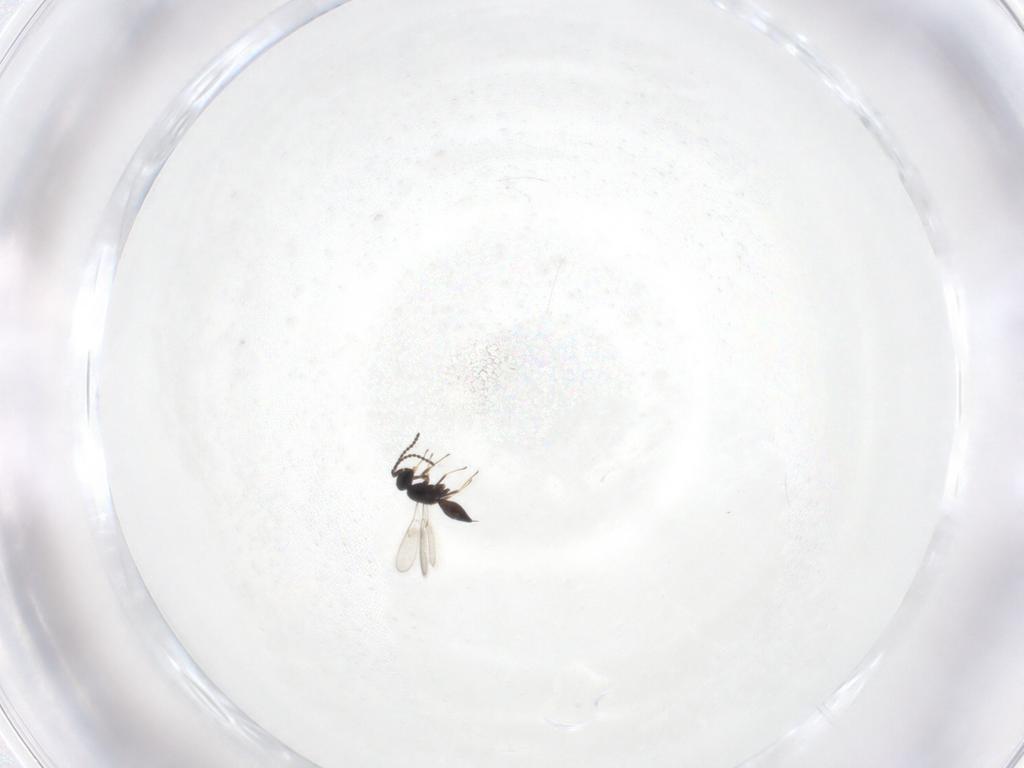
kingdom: Animalia
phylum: Arthropoda
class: Insecta
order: Hymenoptera
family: Scelionidae
